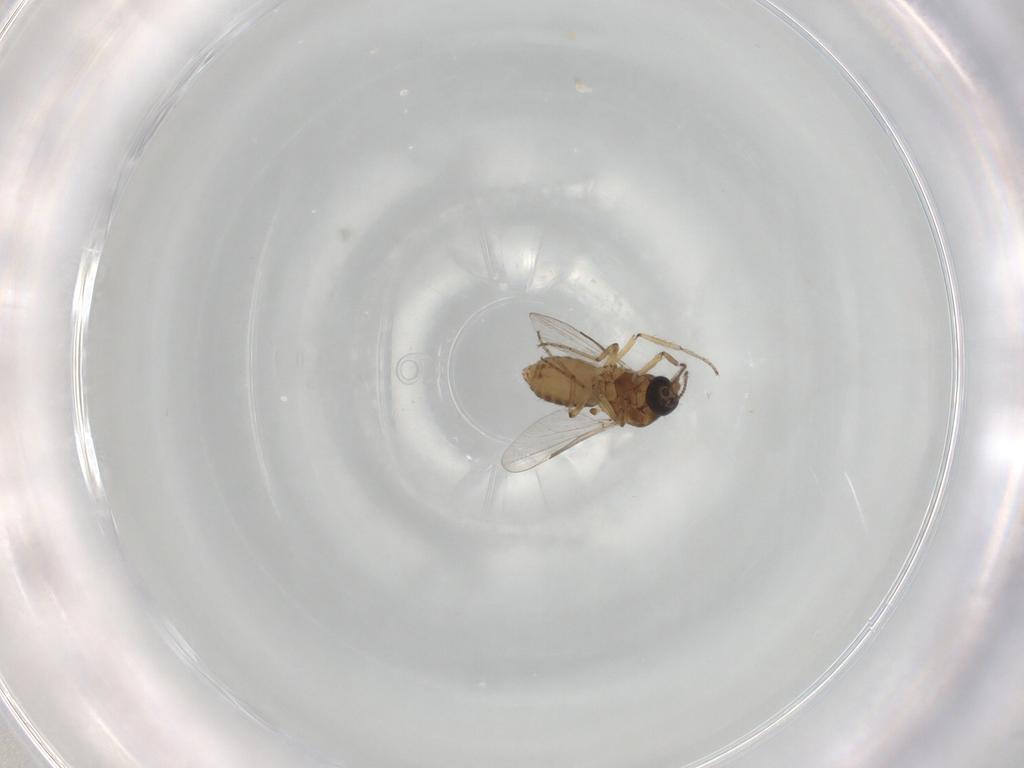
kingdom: Animalia
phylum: Arthropoda
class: Insecta
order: Diptera
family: Ceratopogonidae
